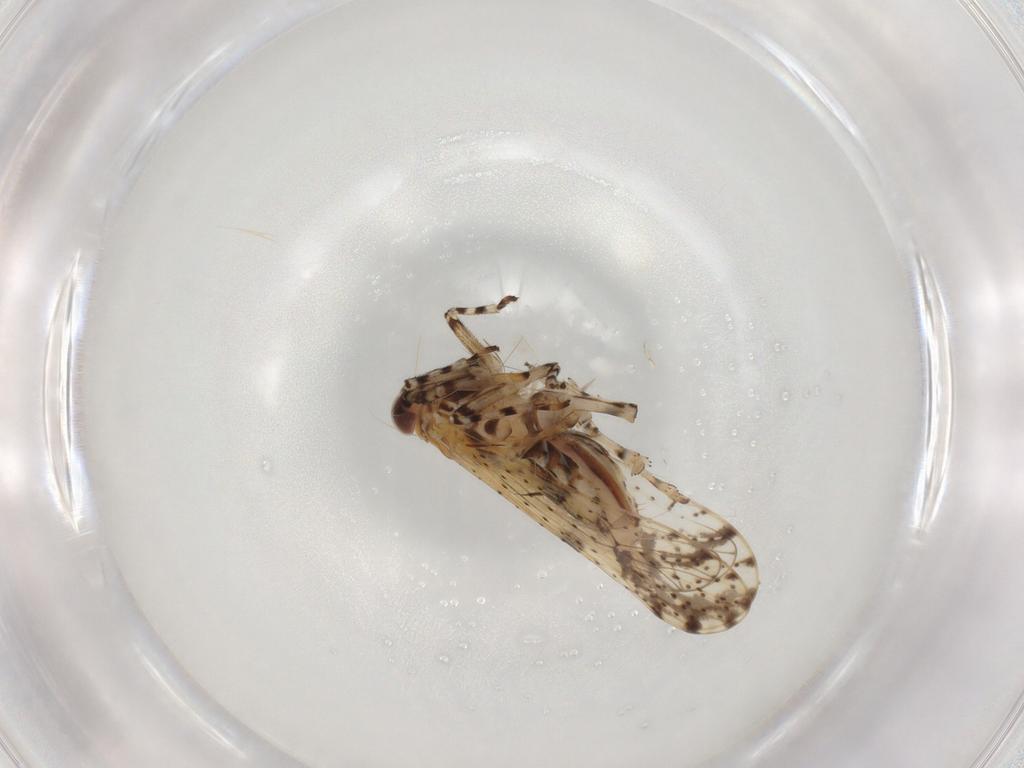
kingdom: Animalia
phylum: Arthropoda
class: Insecta
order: Hemiptera
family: Delphacidae
